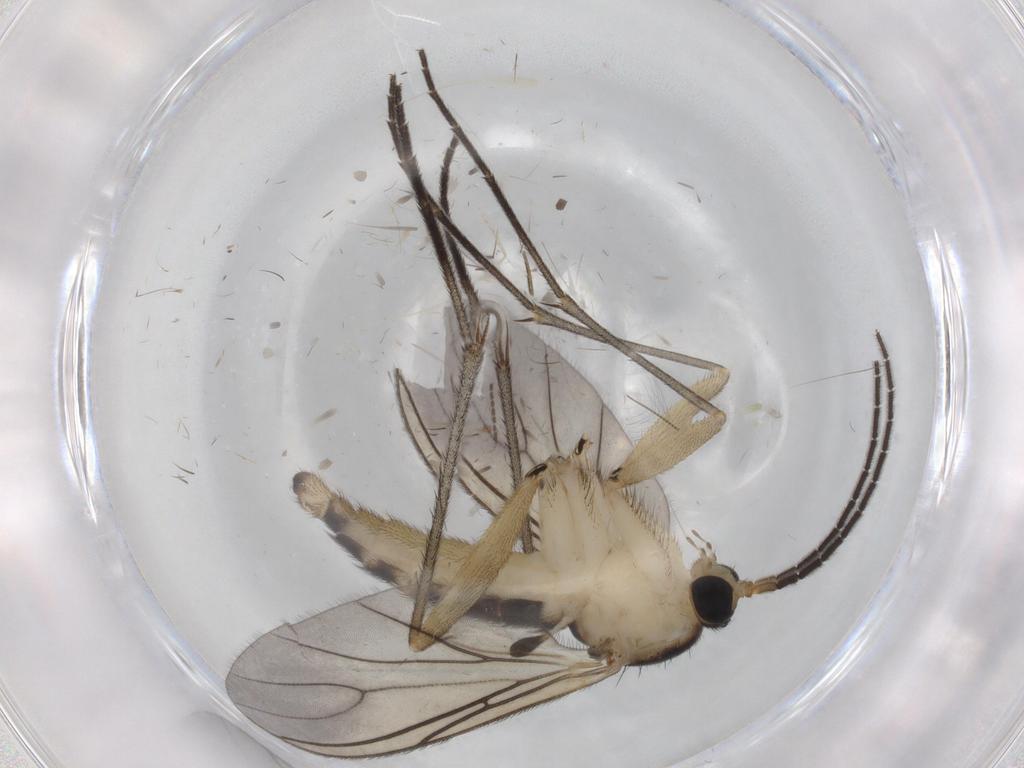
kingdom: Animalia
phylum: Arthropoda
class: Insecta
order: Diptera
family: Sciaridae
